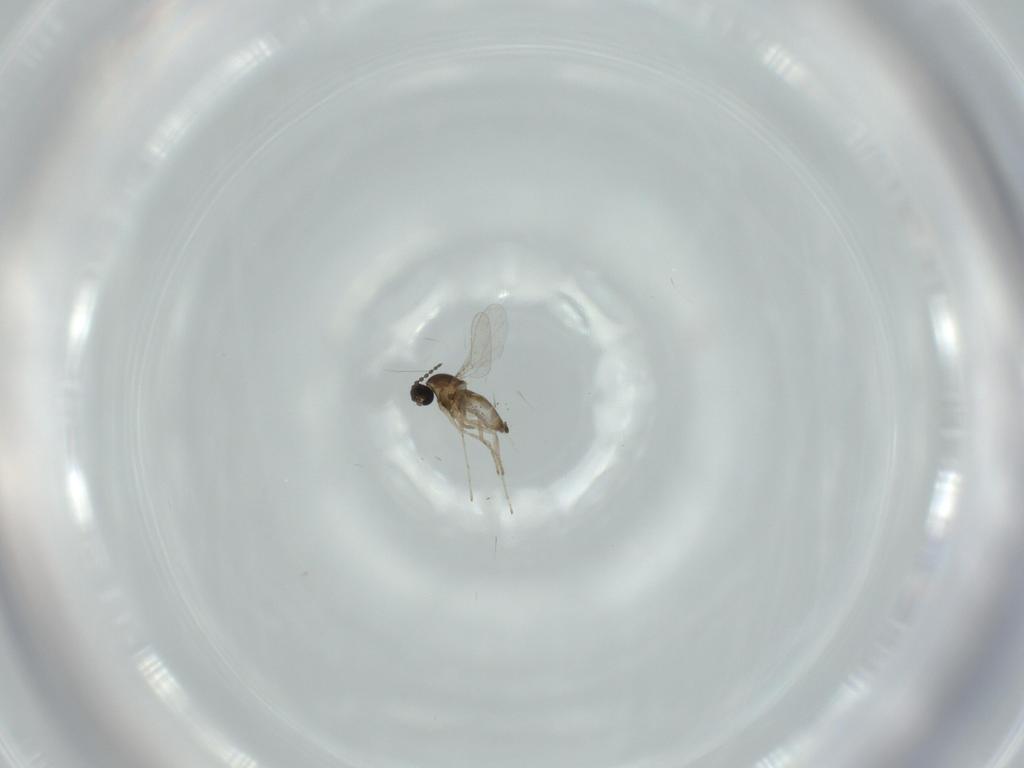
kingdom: Animalia
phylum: Arthropoda
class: Insecta
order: Diptera
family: Cecidomyiidae
